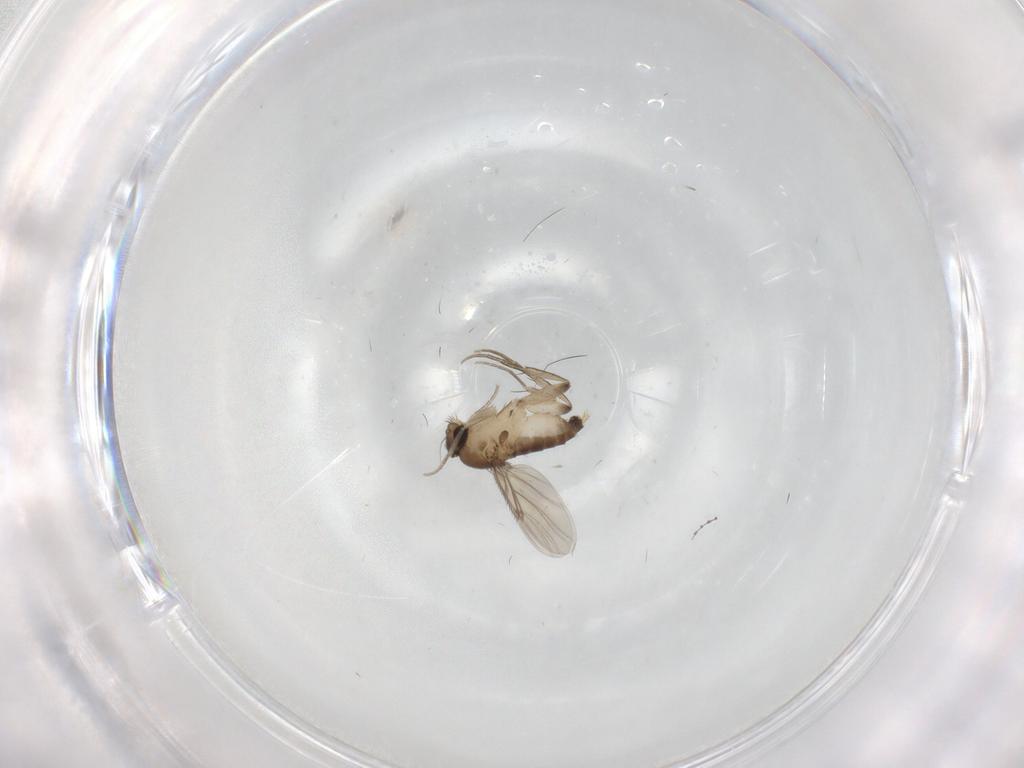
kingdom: Animalia
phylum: Arthropoda
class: Insecta
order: Diptera
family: Cecidomyiidae
